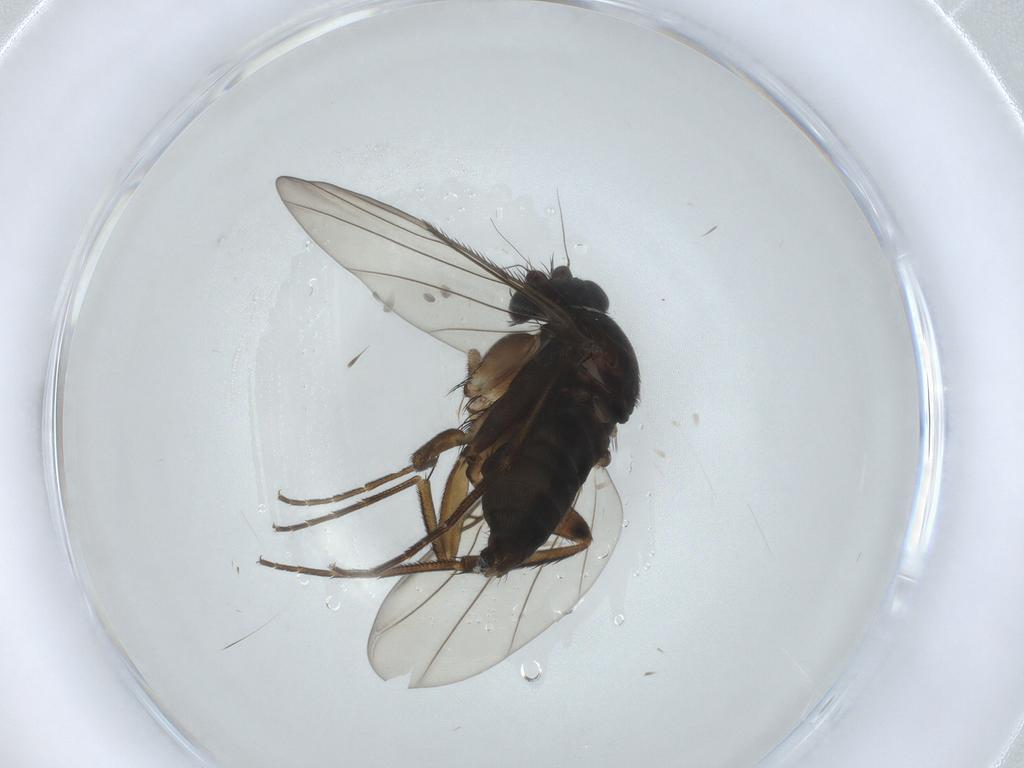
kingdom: Animalia
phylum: Arthropoda
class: Insecta
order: Diptera
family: Phoridae
